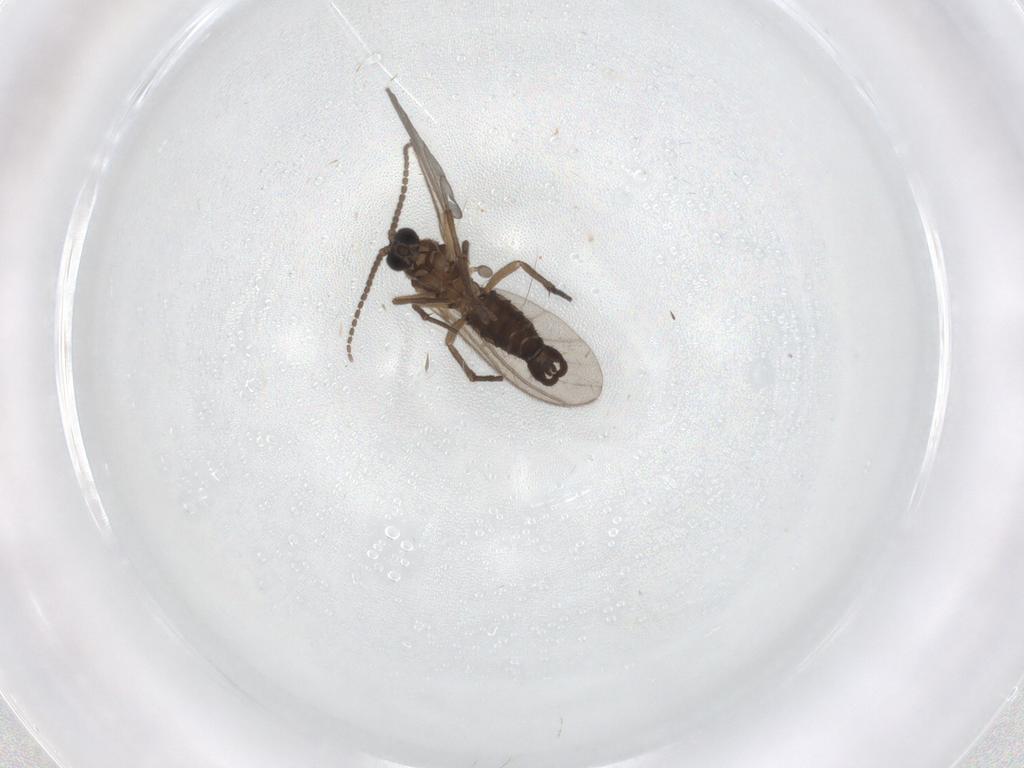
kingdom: Animalia
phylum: Arthropoda
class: Insecta
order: Diptera
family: Sciaridae
